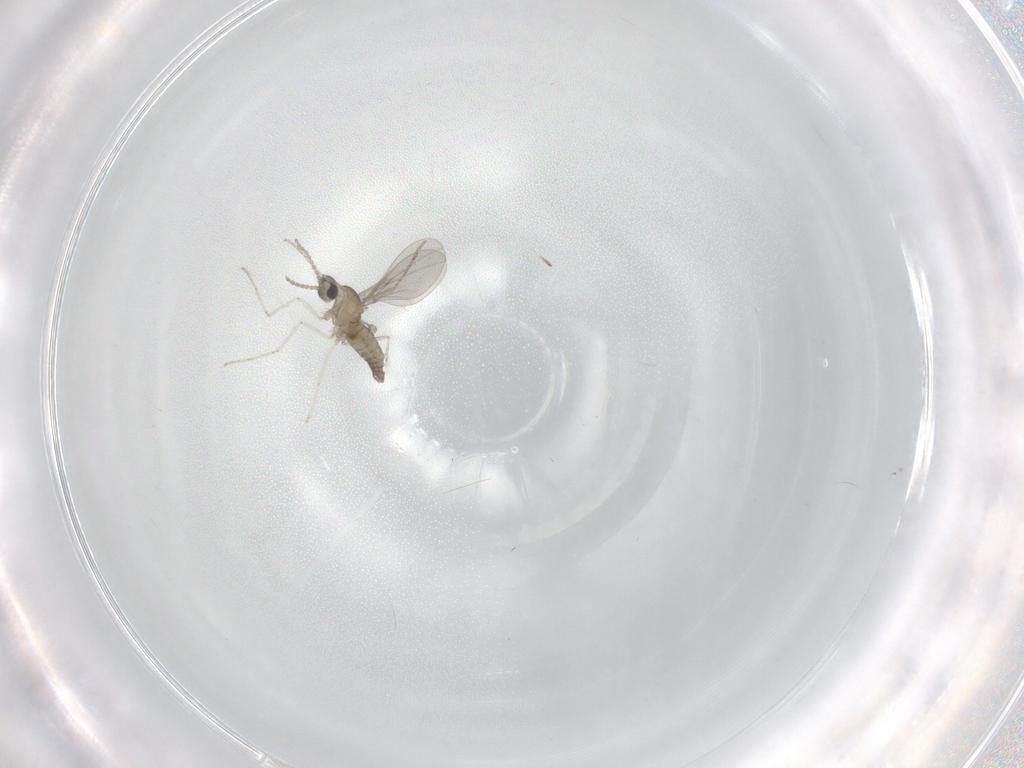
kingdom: Animalia
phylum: Arthropoda
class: Insecta
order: Diptera
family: Cecidomyiidae
